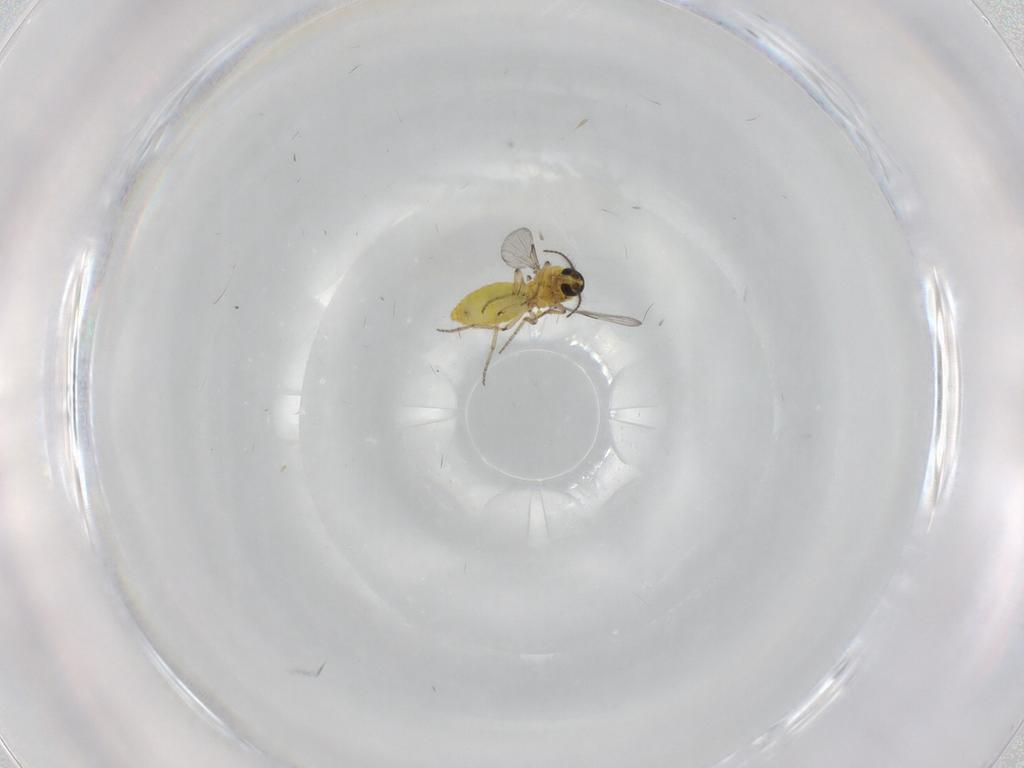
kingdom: Animalia
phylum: Arthropoda
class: Insecta
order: Diptera
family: Ceratopogonidae
